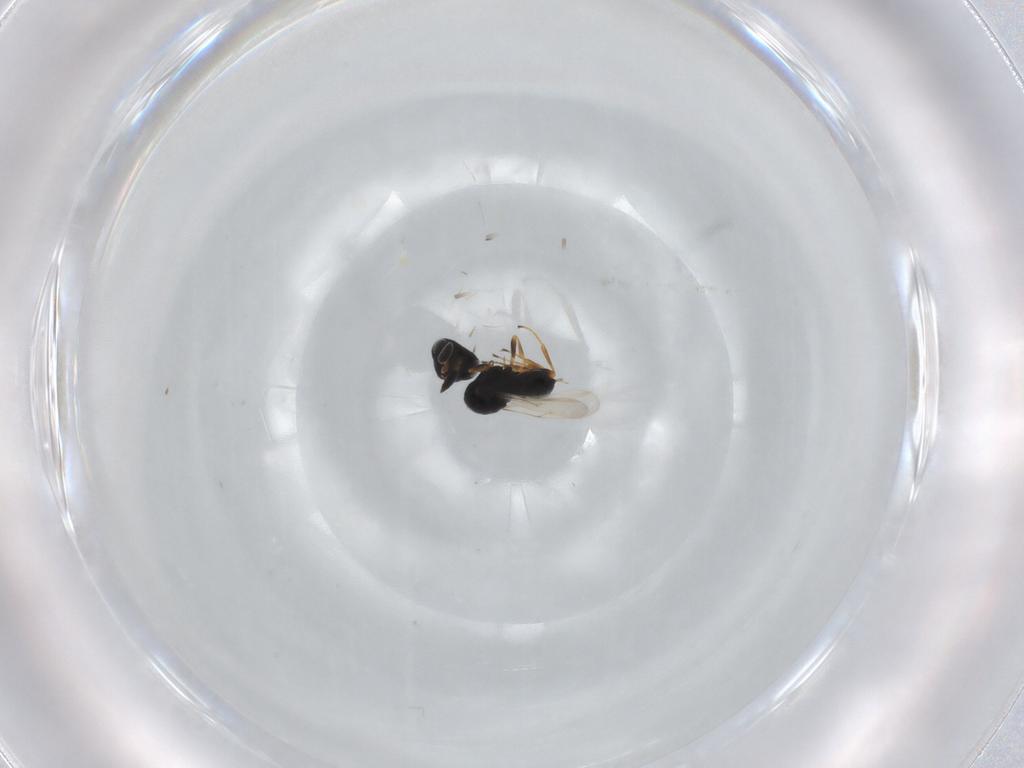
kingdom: Animalia
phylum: Arthropoda
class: Insecta
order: Hymenoptera
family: Scelionidae
